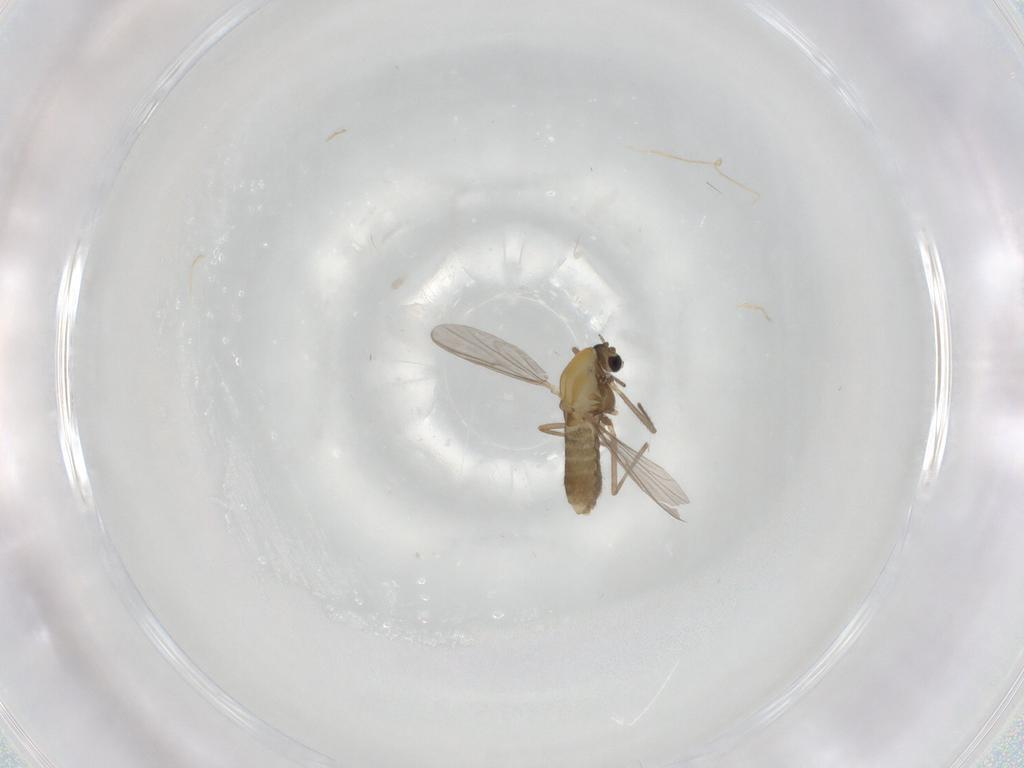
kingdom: Animalia
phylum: Arthropoda
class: Insecta
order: Diptera
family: Chironomidae
